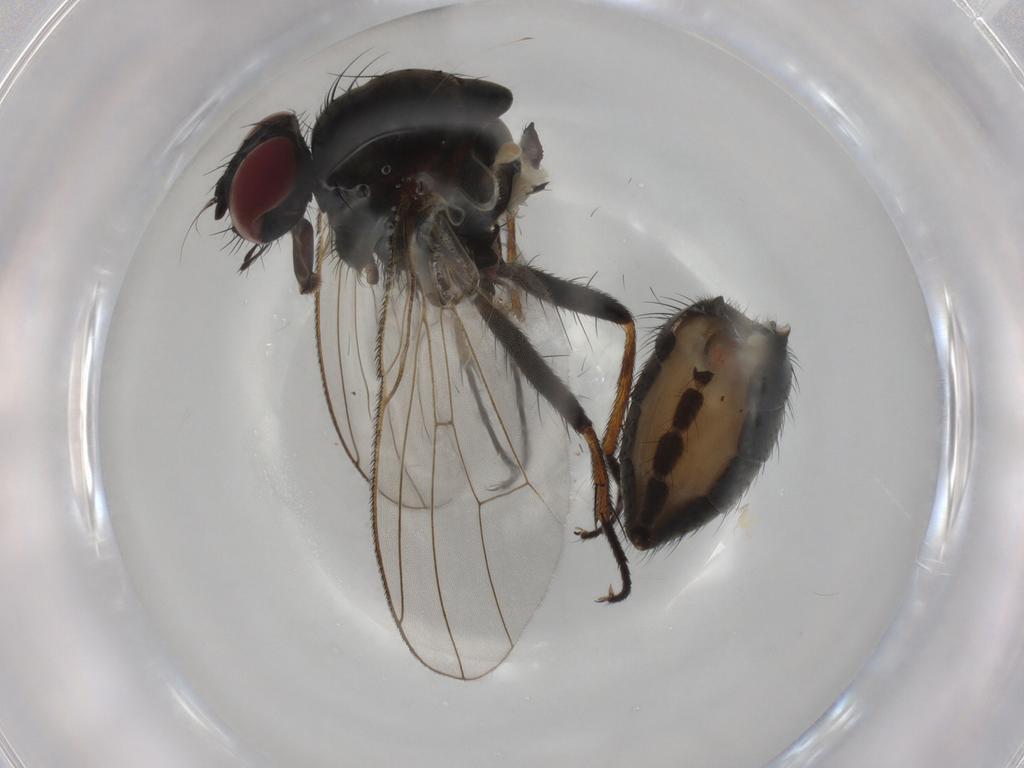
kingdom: Animalia
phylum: Arthropoda
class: Insecta
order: Diptera
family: Chironomidae
